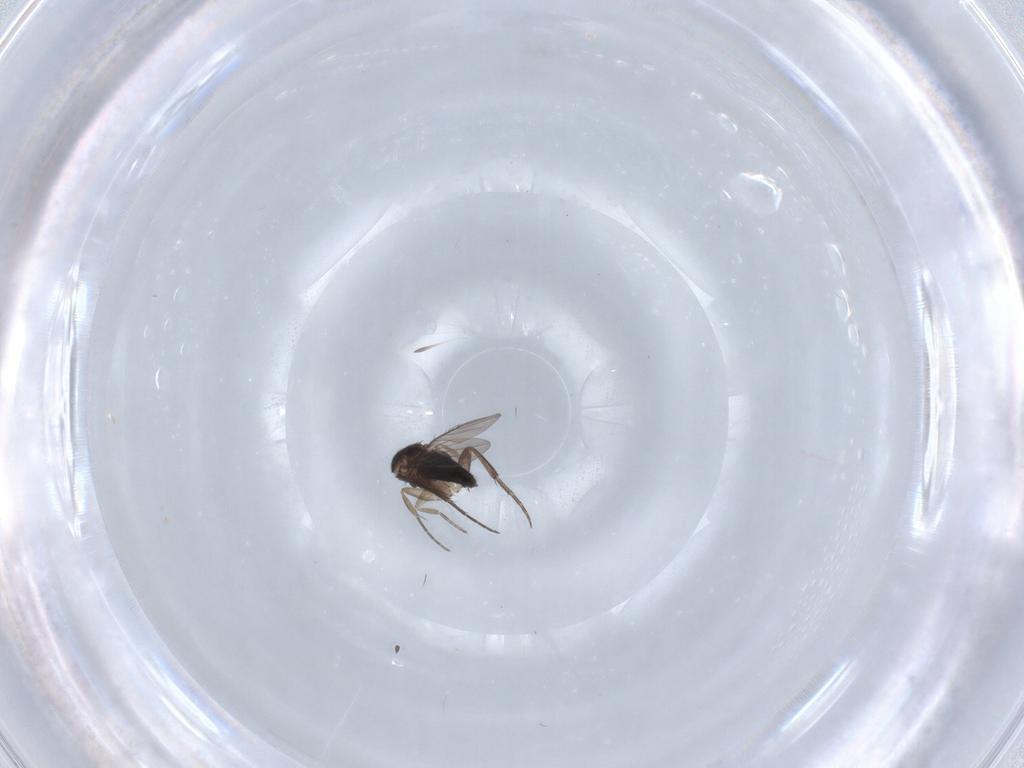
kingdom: Animalia
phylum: Arthropoda
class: Insecta
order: Diptera
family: Phoridae
